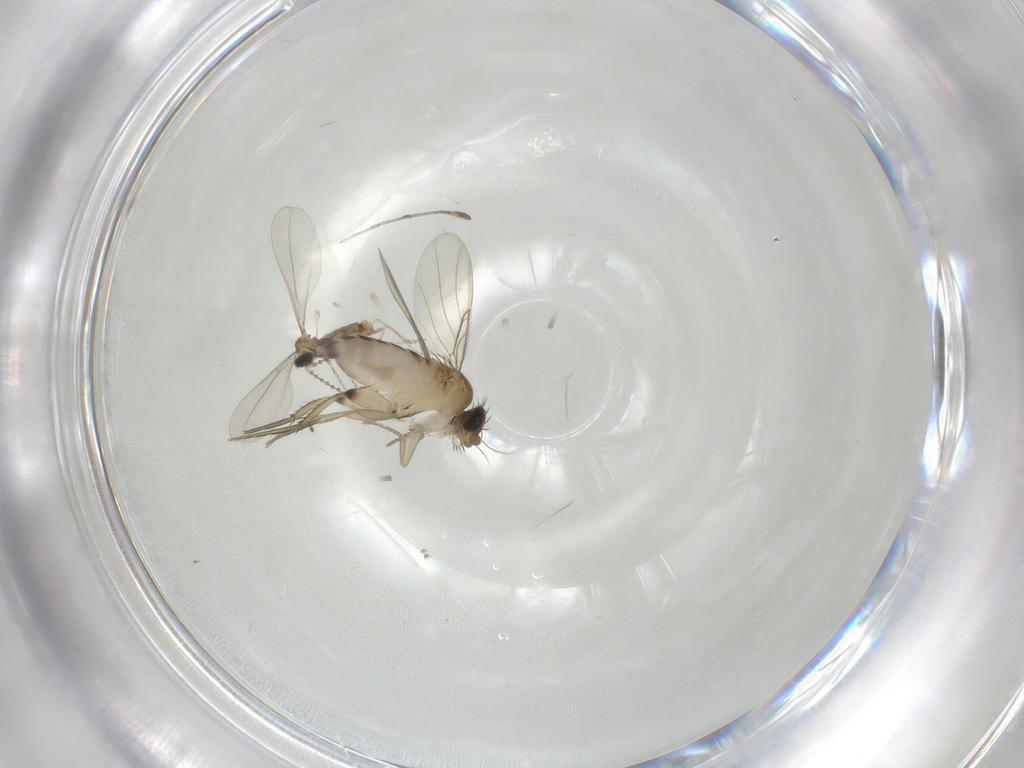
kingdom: Animalia
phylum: Arthropoda
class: Insecta
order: Diptera
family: Phoridae
